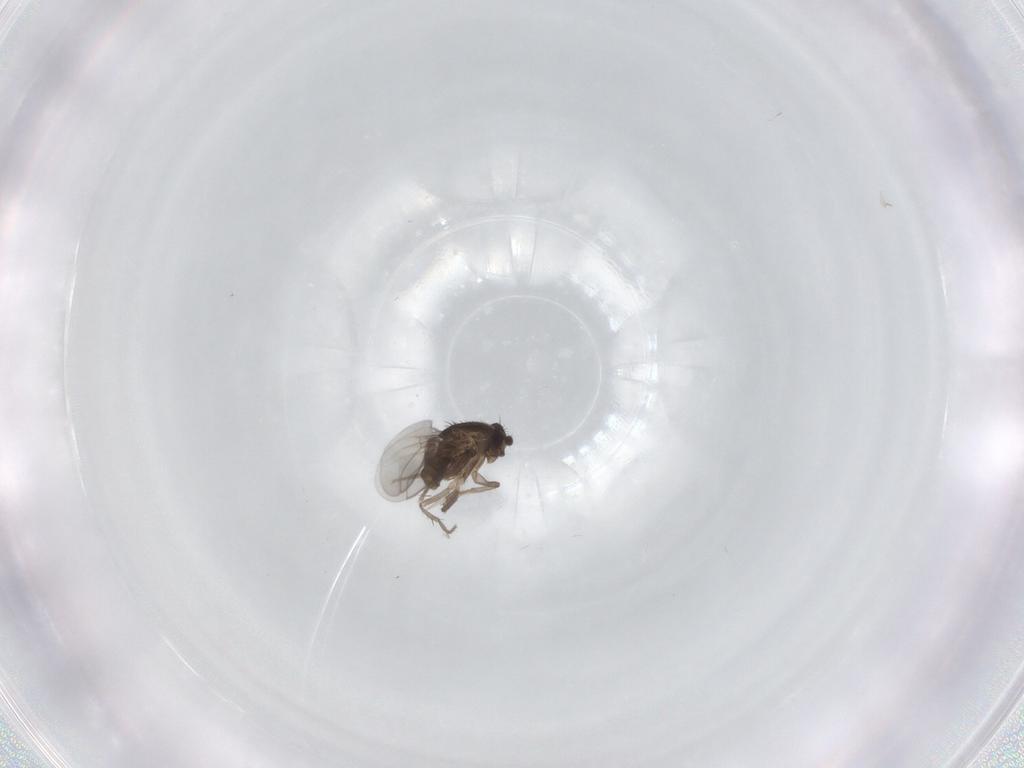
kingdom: Animalia
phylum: Arthropoda
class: Insecta
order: Diptera
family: Sphaeroceridae
